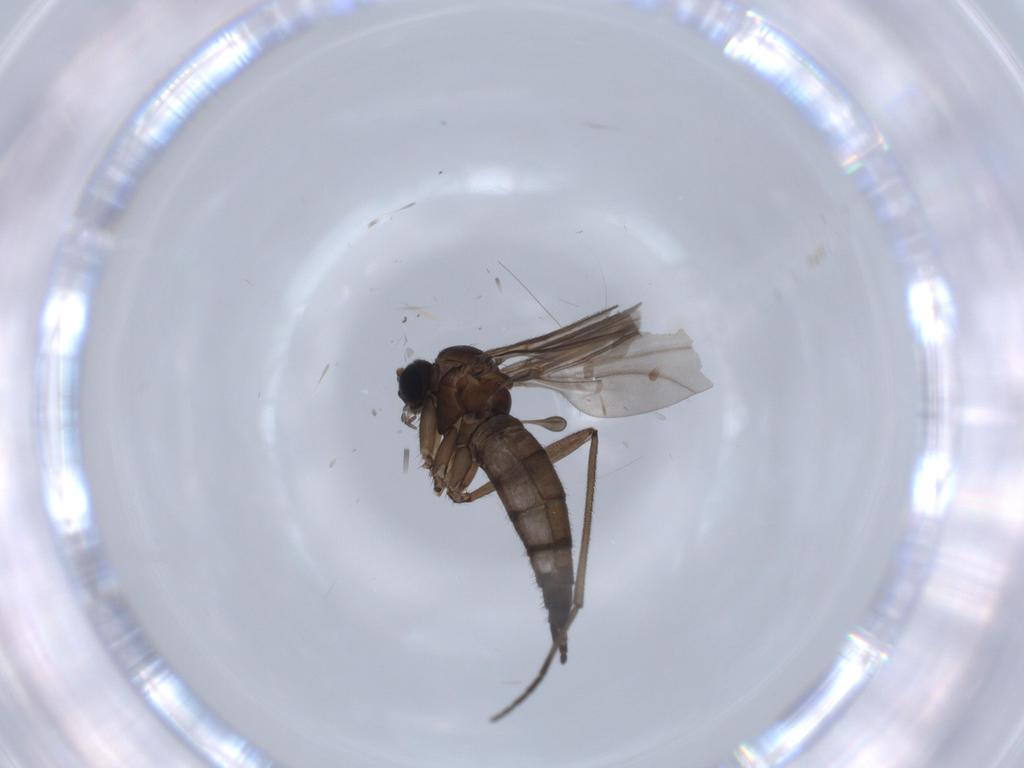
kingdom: Animalia
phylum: Arthropoda
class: Insecta
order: Diptera
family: Sciaridae
